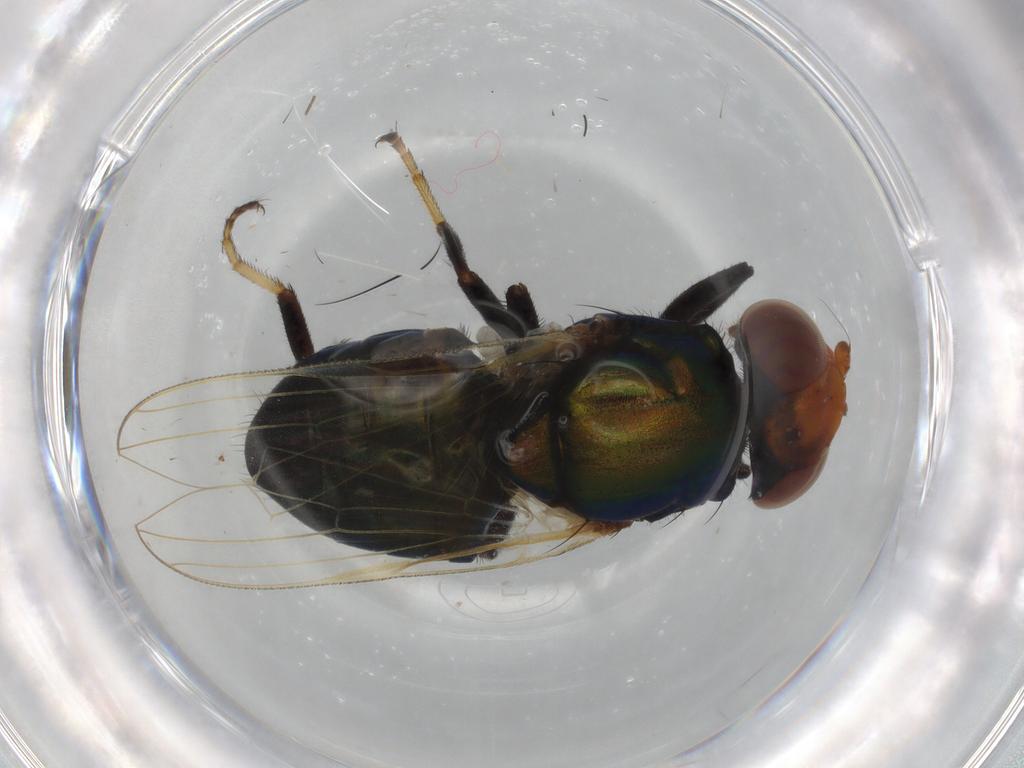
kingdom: Animalia
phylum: Arthropoda
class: Insecta
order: Diptera
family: Ulidiidae
